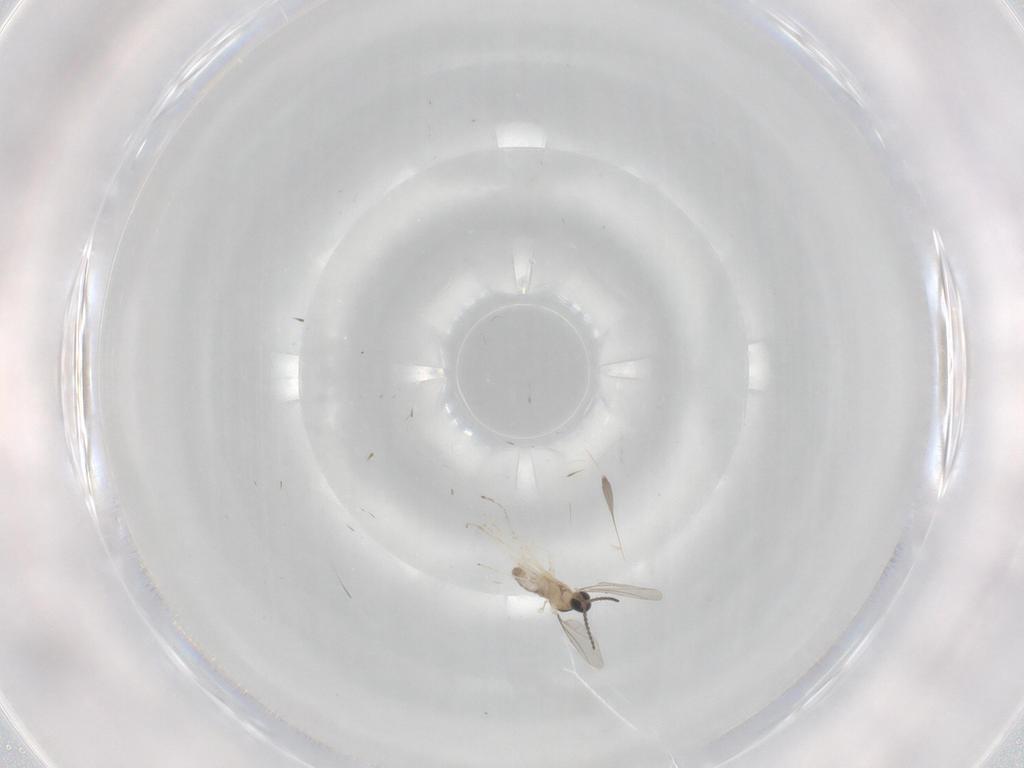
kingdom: Animalia
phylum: Arthropoda
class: Insecta
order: Diptera
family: Cecidomyiidae
